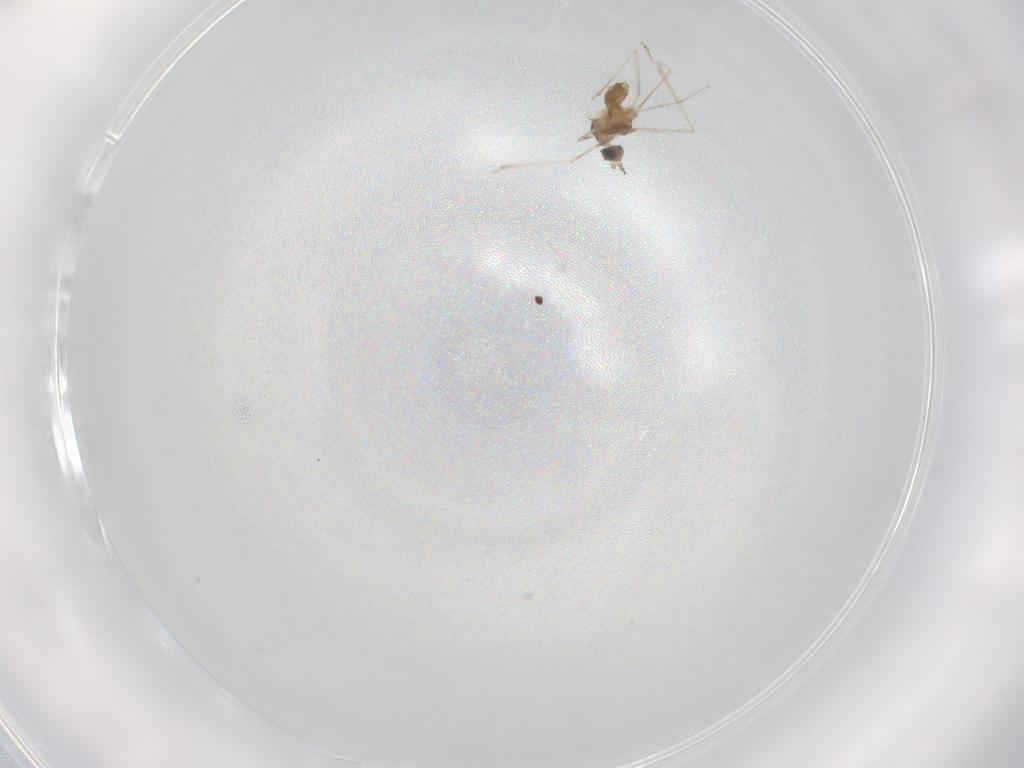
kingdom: Animalia
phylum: Arthropoda
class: Insecta
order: Diptera
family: Cecidomyiidae
